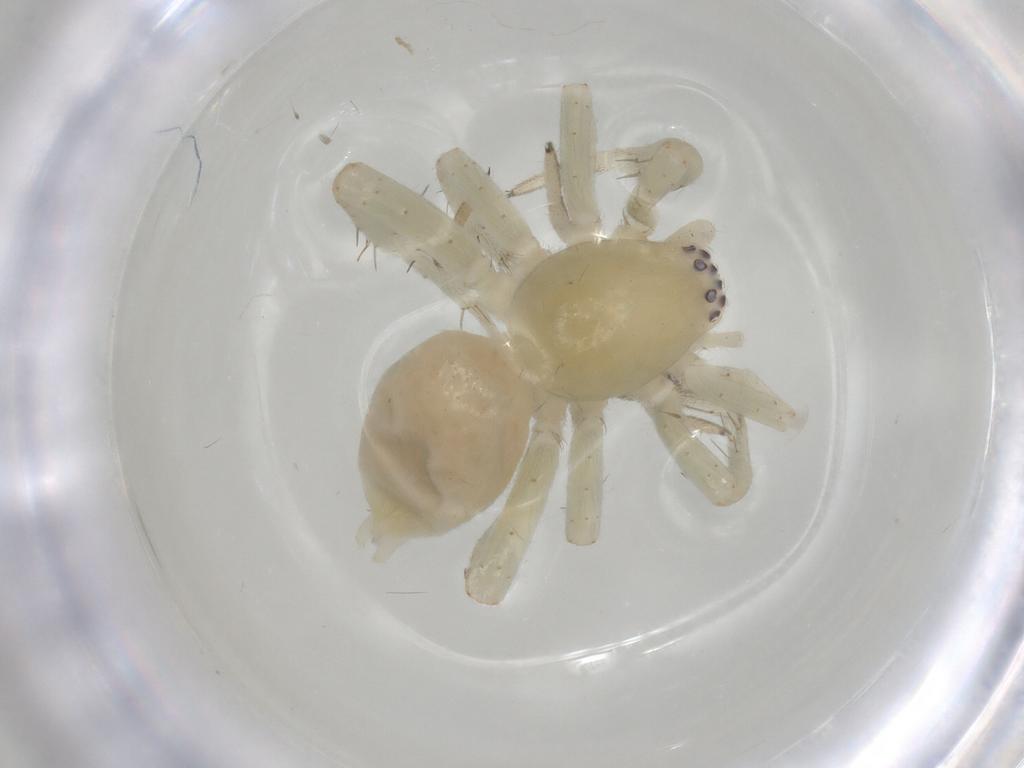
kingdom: Animalia
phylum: Arthropoda
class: Arachnida
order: Araneae
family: Clubionidae
